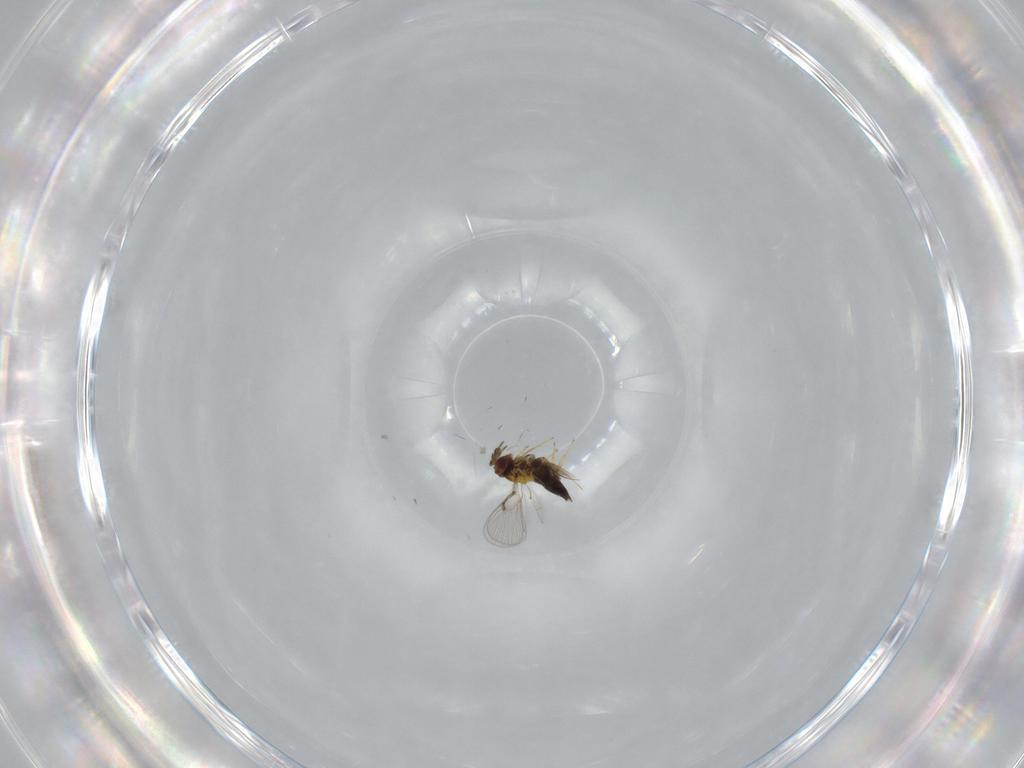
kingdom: Animalia
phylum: Arthropoda
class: Insecta
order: Hymenoptera
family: Trichogrammatidae
